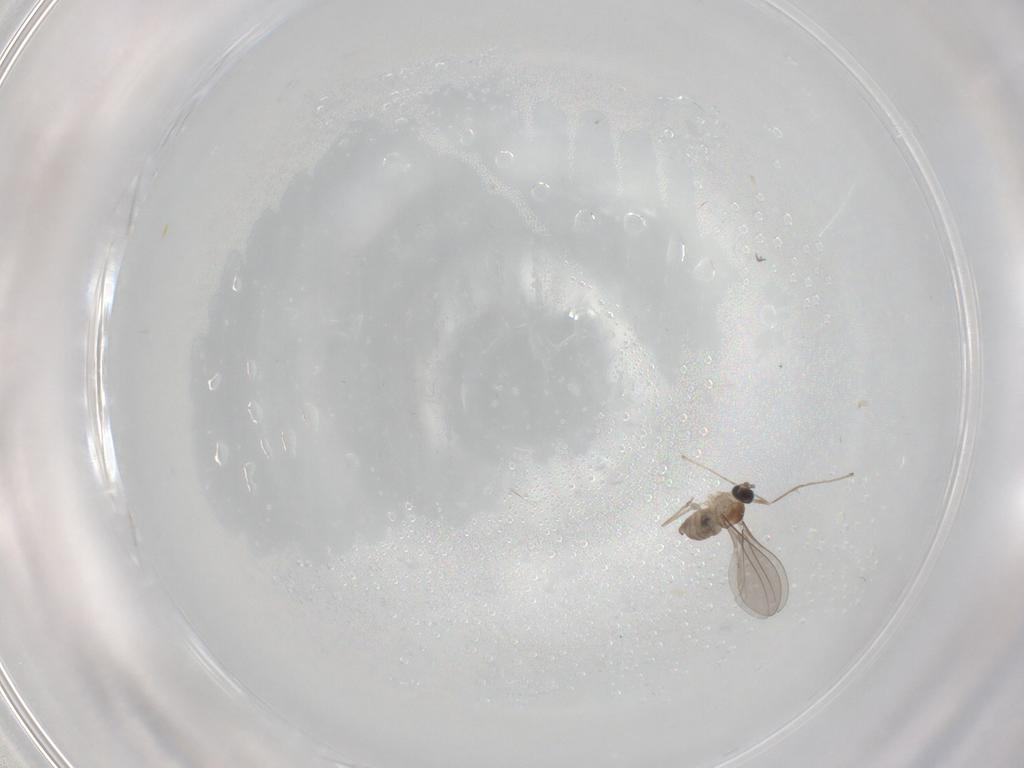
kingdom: Animalia
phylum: Arthropoda
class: Insecta
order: Diptera
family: Cecidomyiidae
